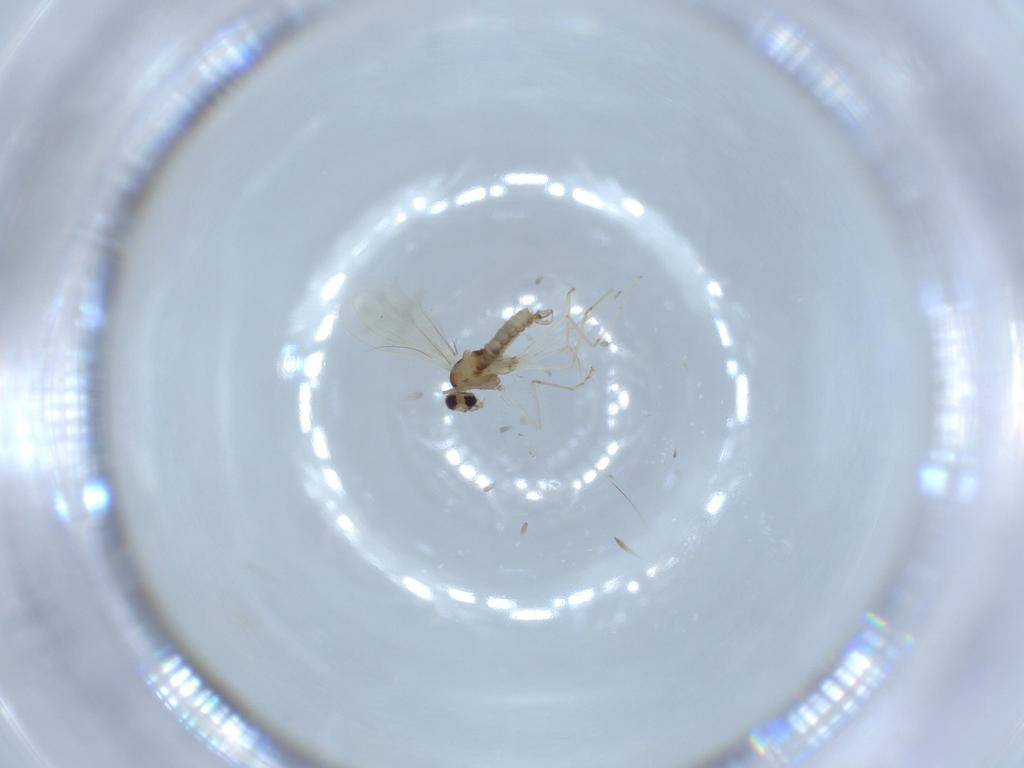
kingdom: Animalia
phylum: Arthropoda
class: Insecta
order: Diptera
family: Cecidomyiidae
